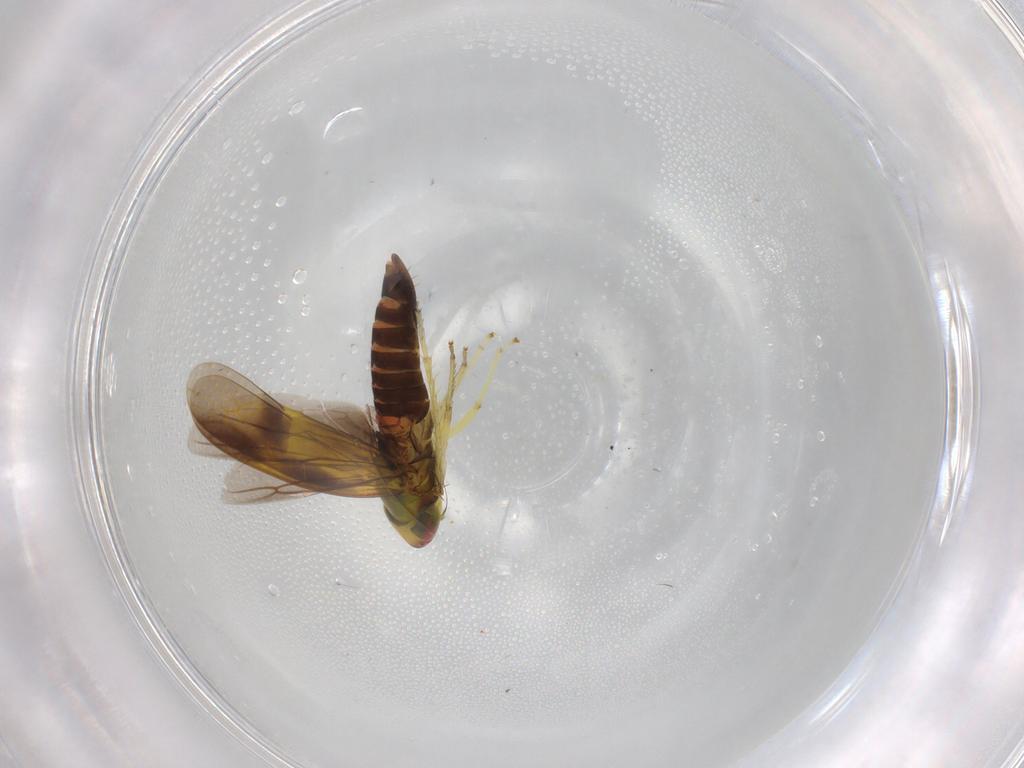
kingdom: Animalia
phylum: Arthropoda
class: Insecta
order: Hemiptera
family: Cicadellidae
